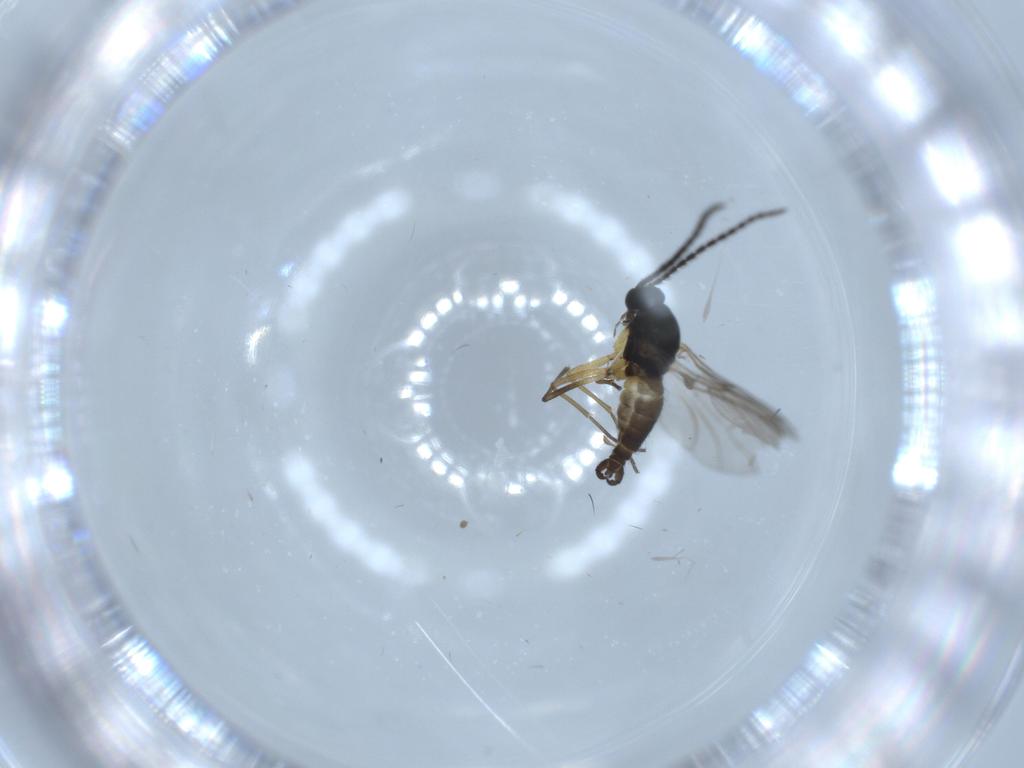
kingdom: Animalia
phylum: Arthropoda
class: Insecta
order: Diptera
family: Sciaridae
